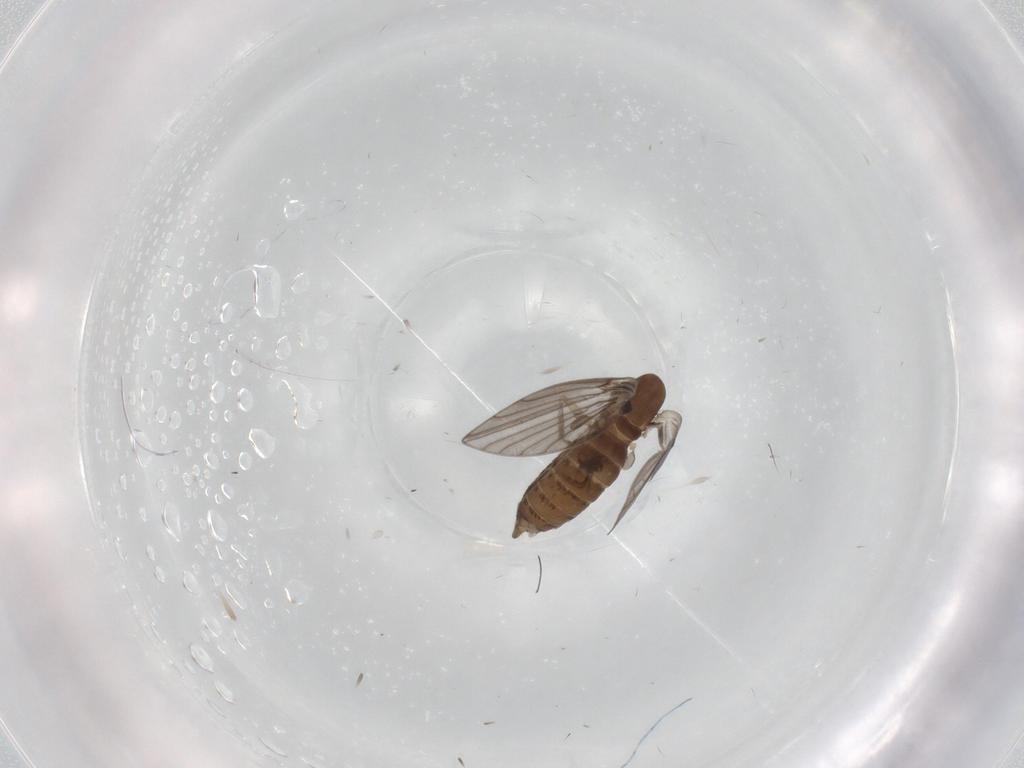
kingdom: Animalia
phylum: Arthropoda
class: Insecta
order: Diptera
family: Psychodidae
